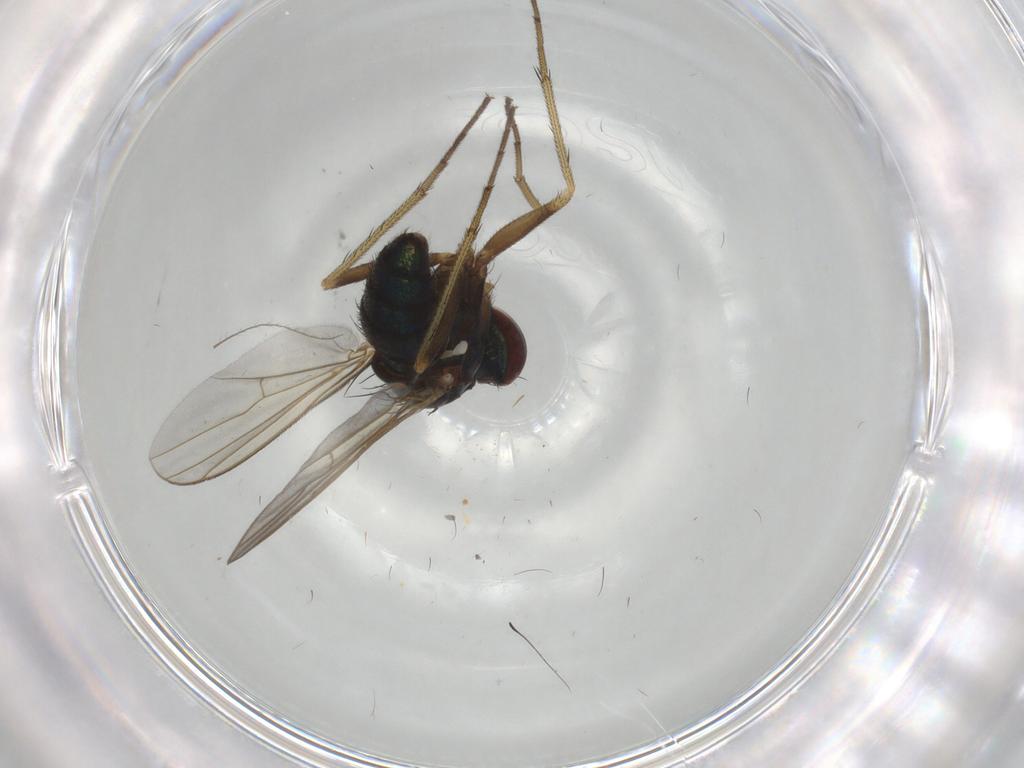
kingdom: Animalia
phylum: Arthropoda
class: Insecta
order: Diptera
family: Dolichopodidae
